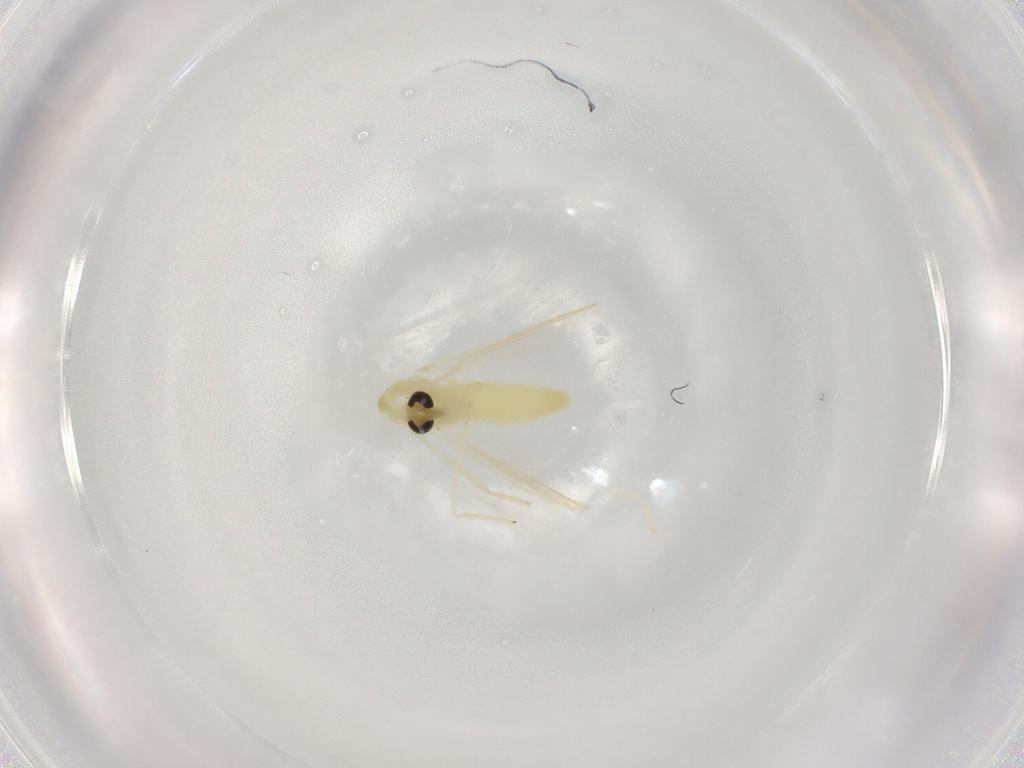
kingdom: Animalia
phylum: Arthropoda
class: Insecta
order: Diptera
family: Chironomidae
